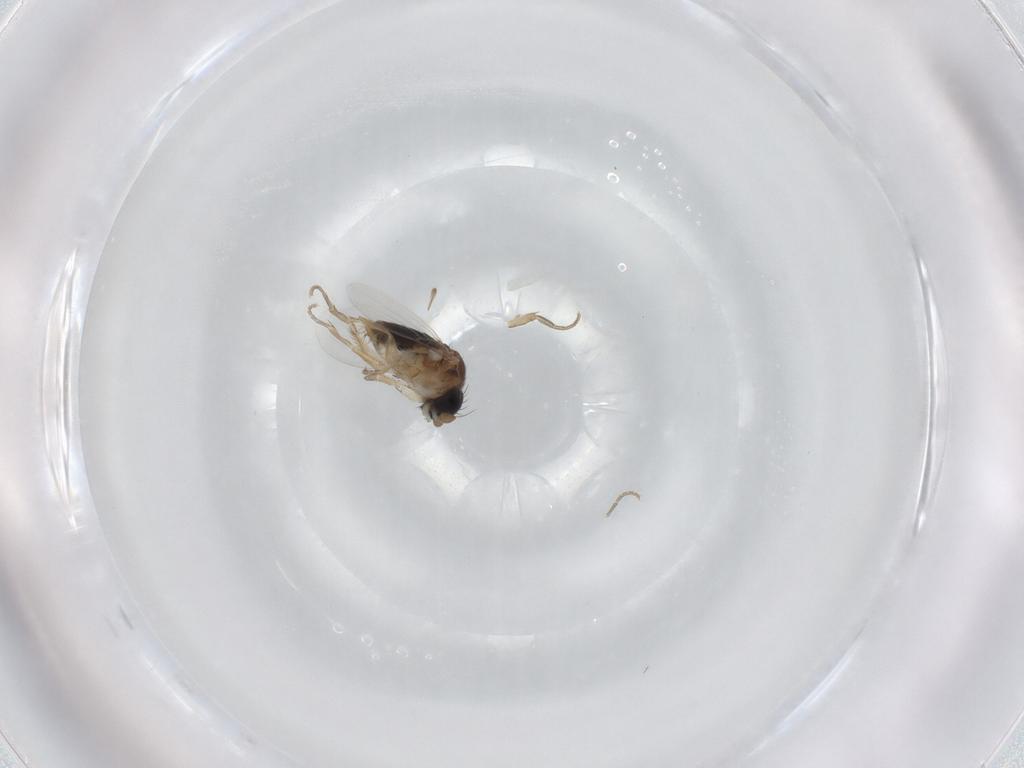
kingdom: Animalia
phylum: Arthropoda
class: Insecta
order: Diptera
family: Phoridae
